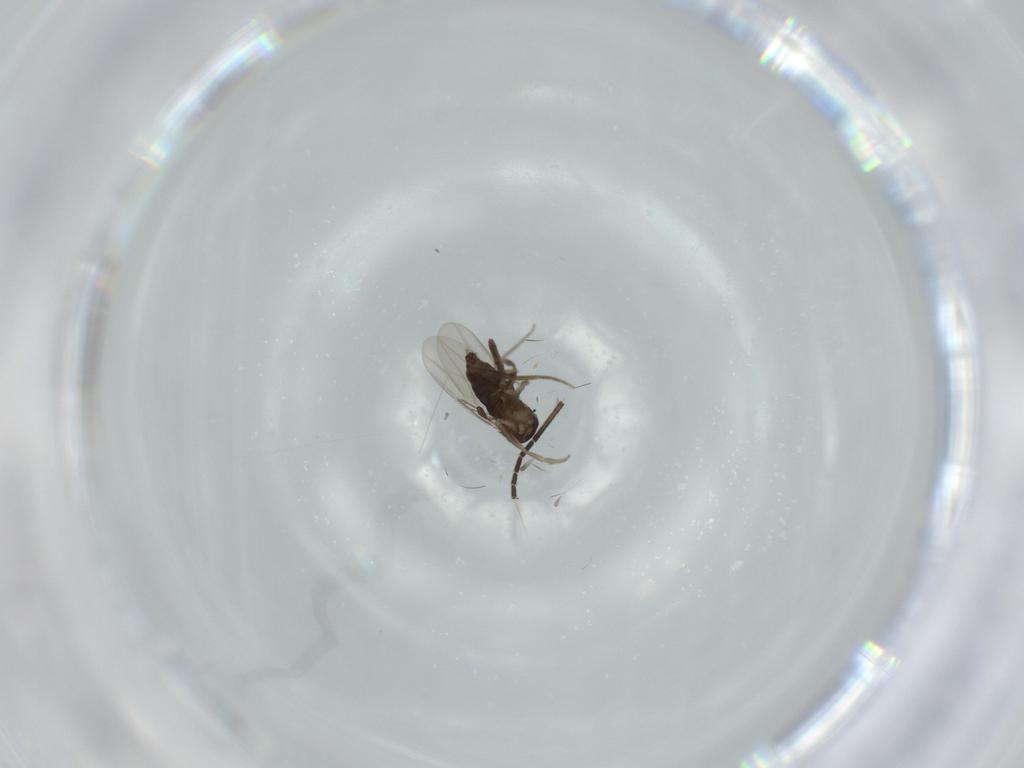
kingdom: Animalia
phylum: Arthropoda
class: Insecta
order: Diptera
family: Phoridae
